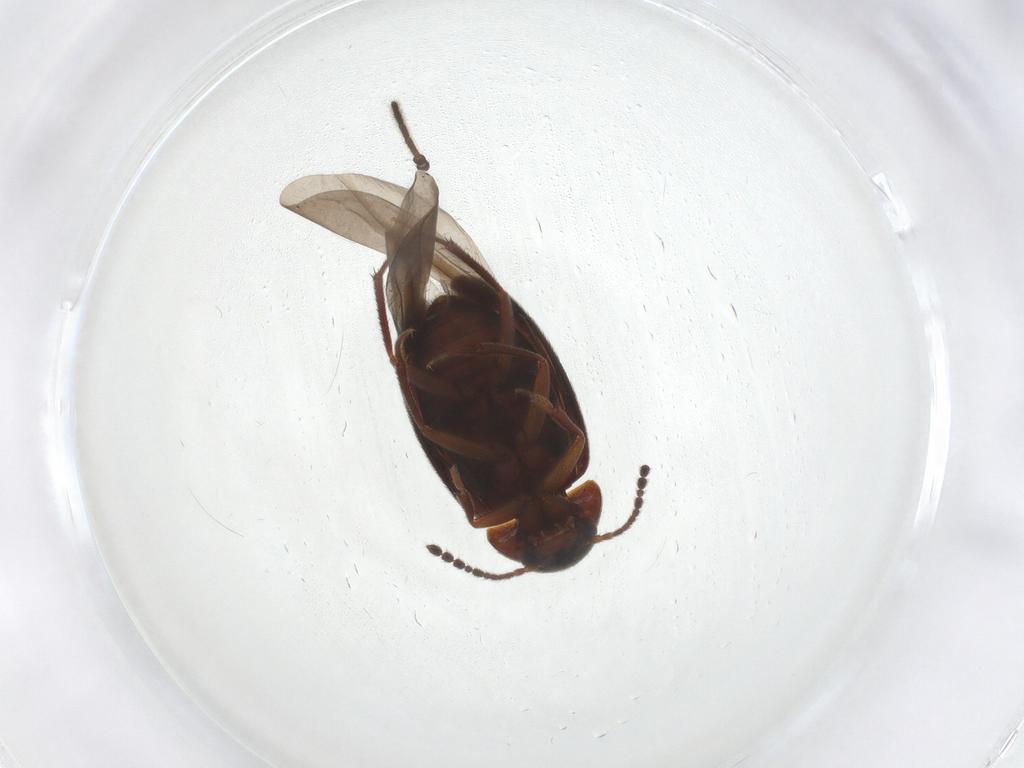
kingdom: Animalia
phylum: Arthropoda
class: Insecta
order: Coleoptera
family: Leiodidae
